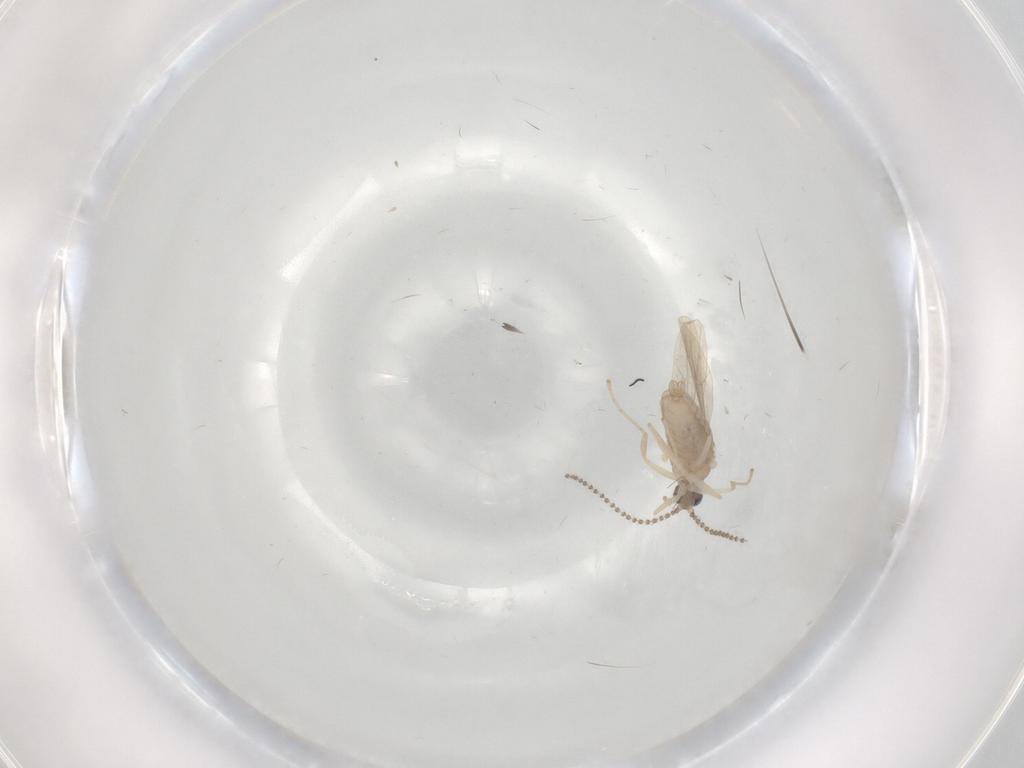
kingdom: Animalia
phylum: Arthropoda
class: Insecta
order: Diptera
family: Cecidomyiidae
